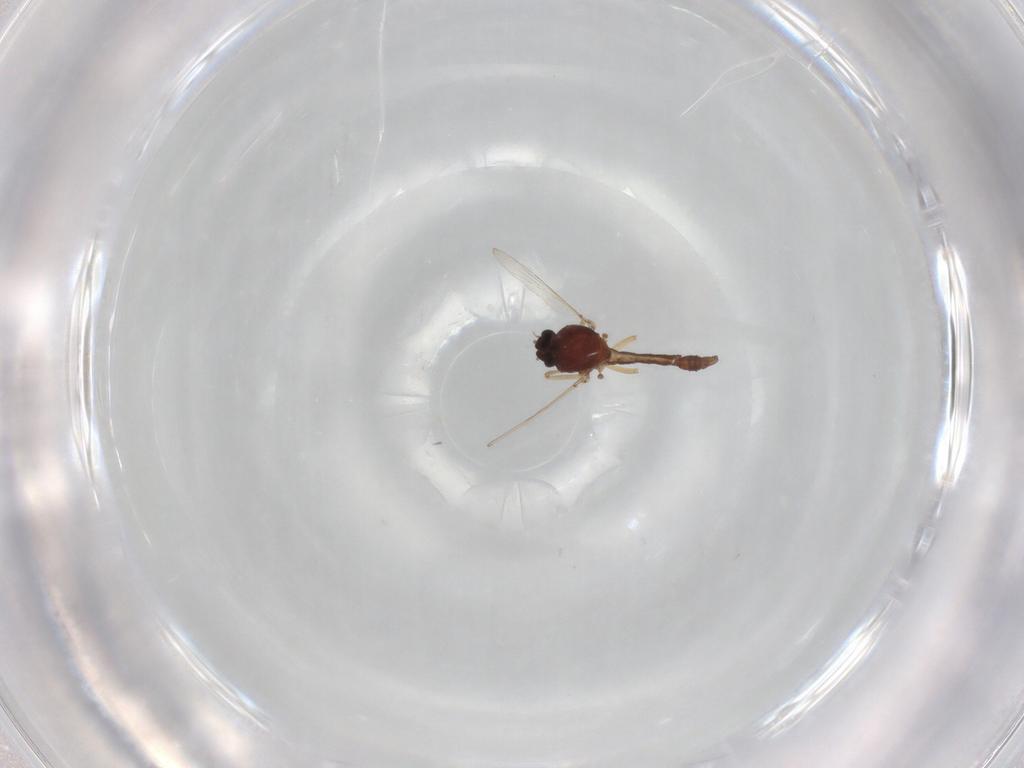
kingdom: Animalia
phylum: Arthropoda
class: Insecta
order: Diptera
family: Ceratopogonidae
